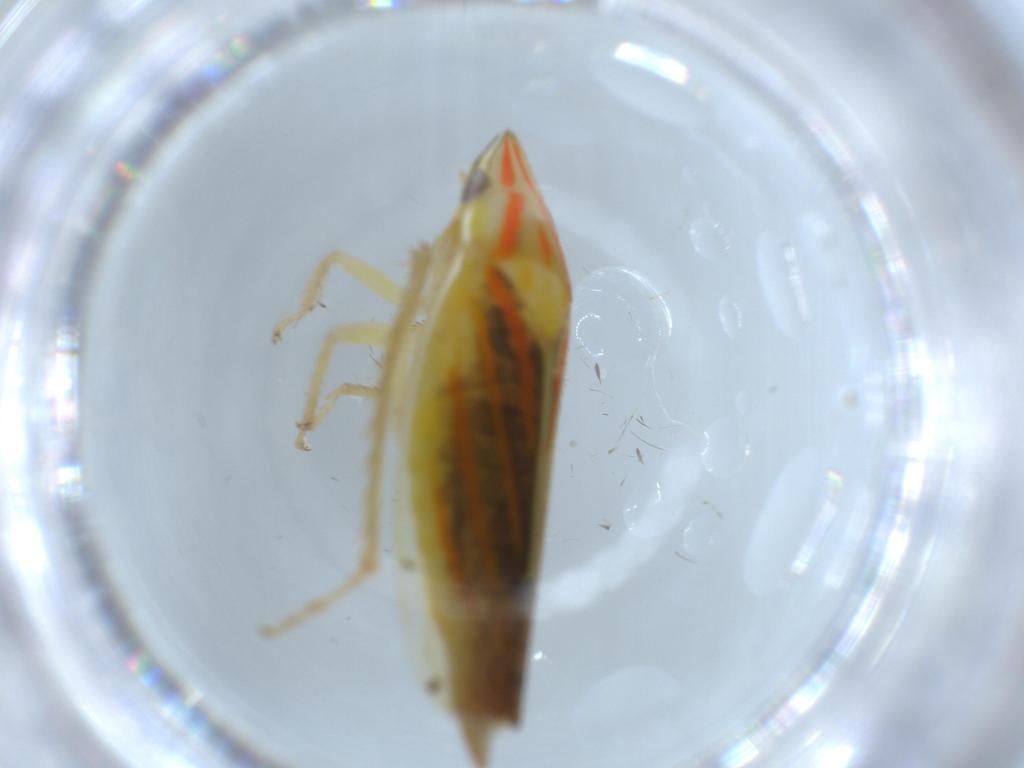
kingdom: Animalia
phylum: Arthropoda
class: Insecta
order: Hemiptera
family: Cicadellidae
